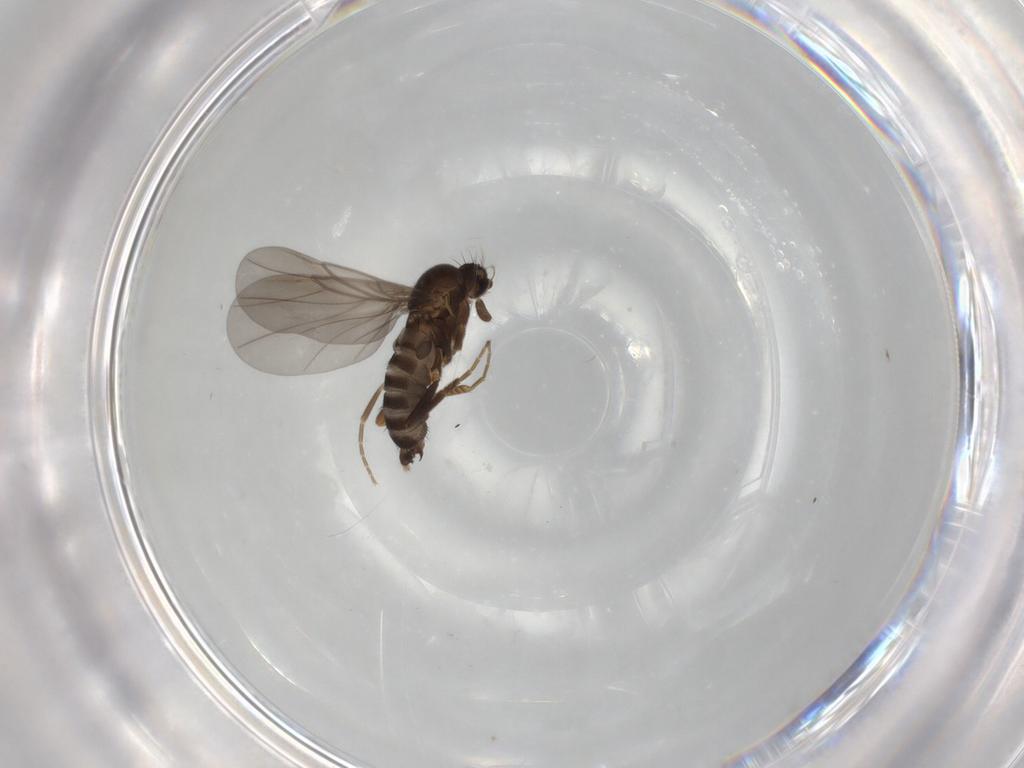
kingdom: Animalia
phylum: Arthropoda
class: Insecta
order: Diptera
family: Phoridae
